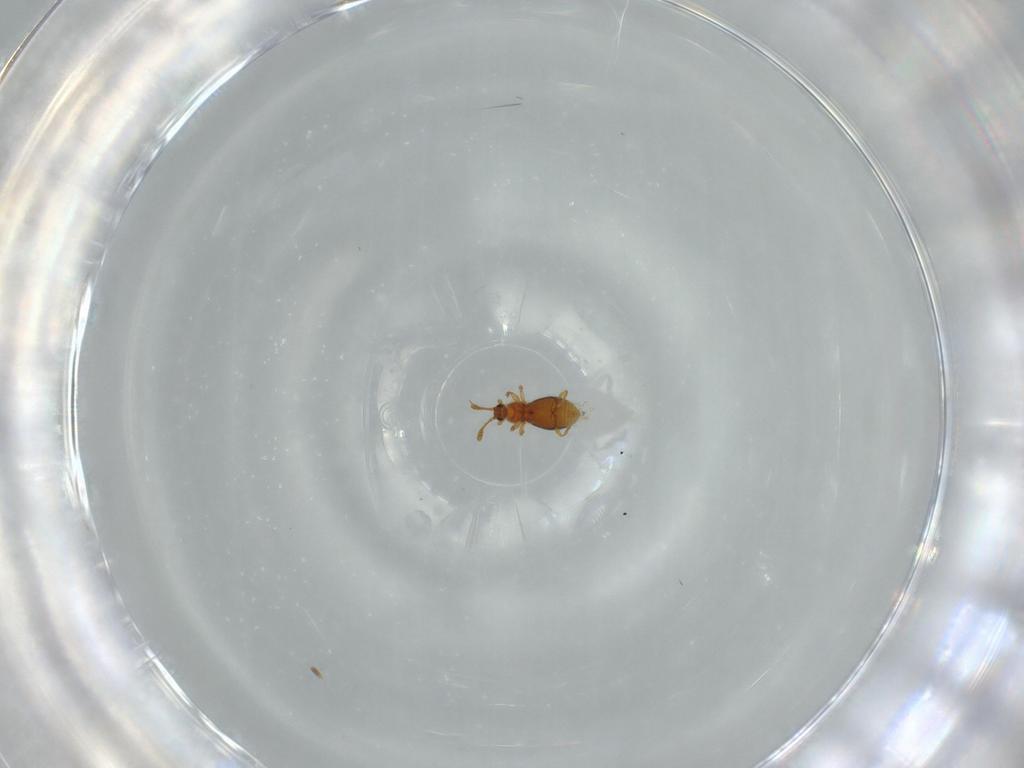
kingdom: Animalia
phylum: Arthropoda
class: Insecta
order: Coleoptera
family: Staphylinidae
